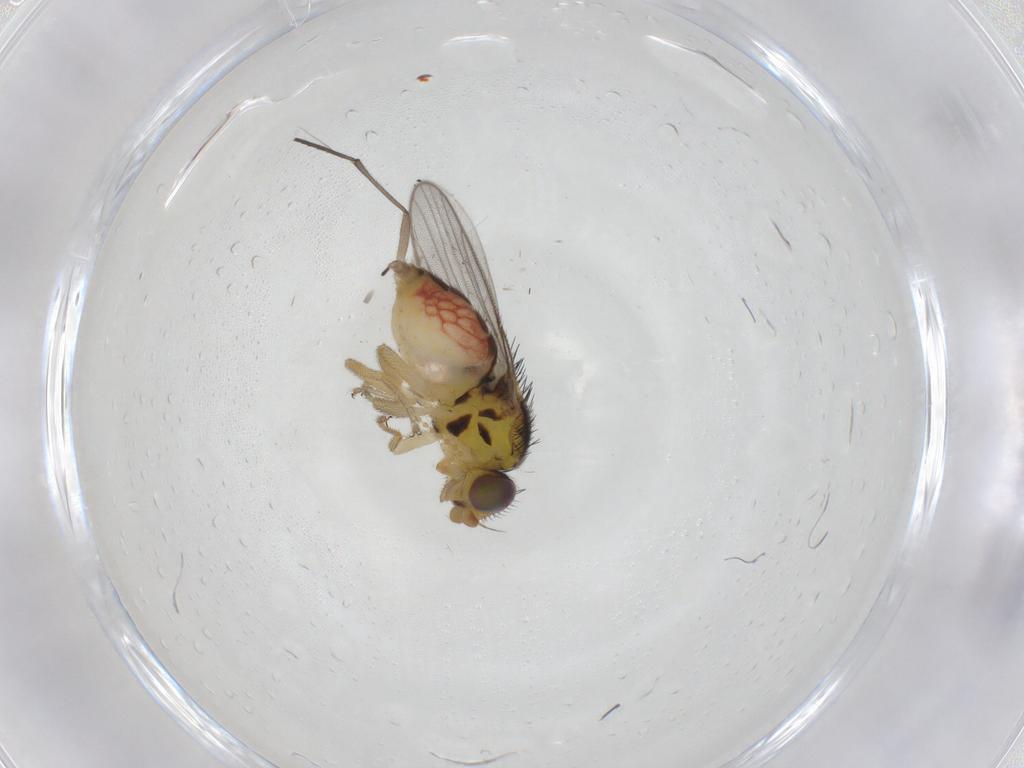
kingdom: Animalia
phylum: Arthropoda
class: Insecta
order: Diptera
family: Chloropidae
